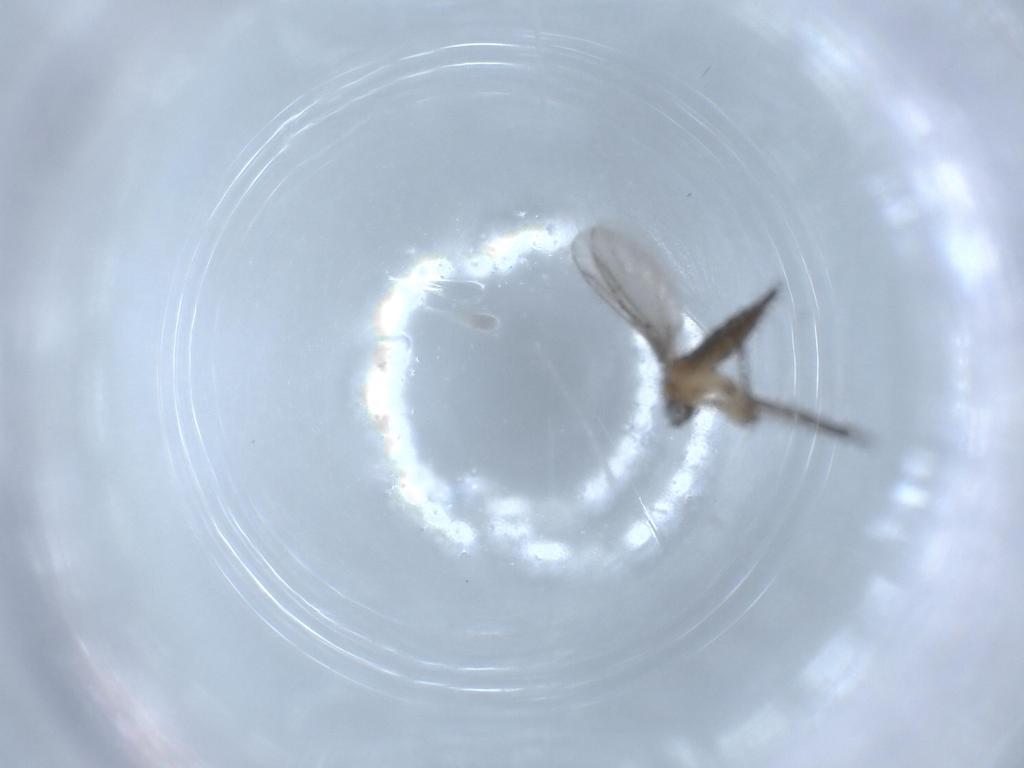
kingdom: Animalia
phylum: Arthropoda
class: Insecta
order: Diptera
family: Sciaridae
